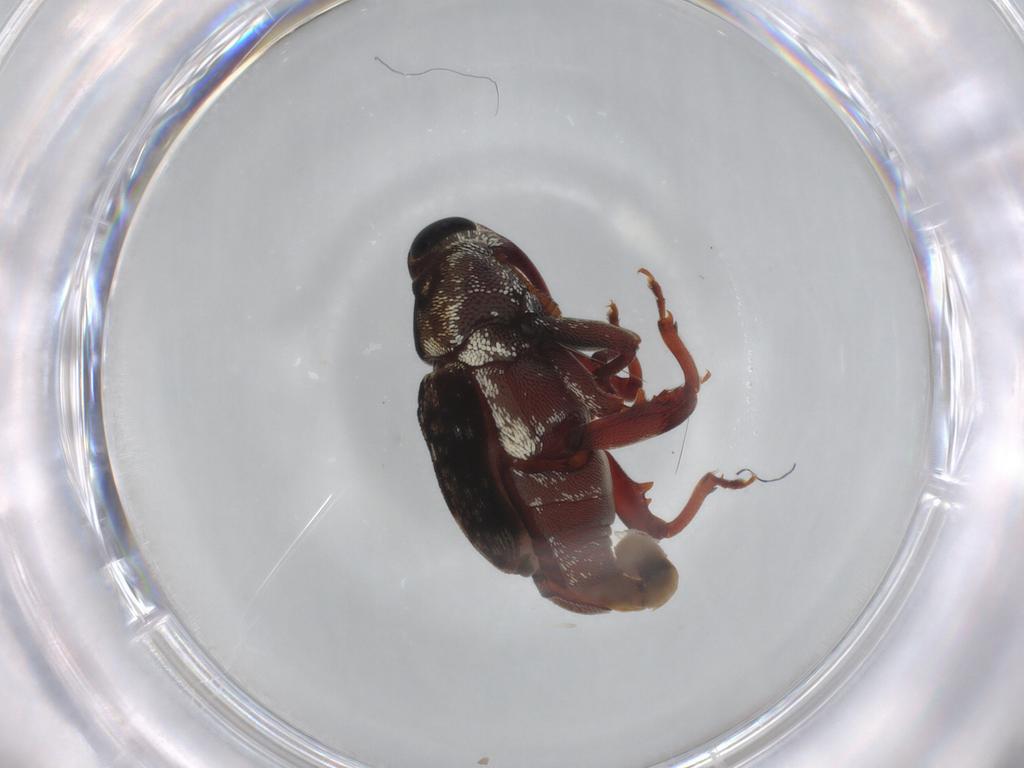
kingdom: Animalia
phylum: Arthropoda
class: Insecta
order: Coleoptera
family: Curculionidae
